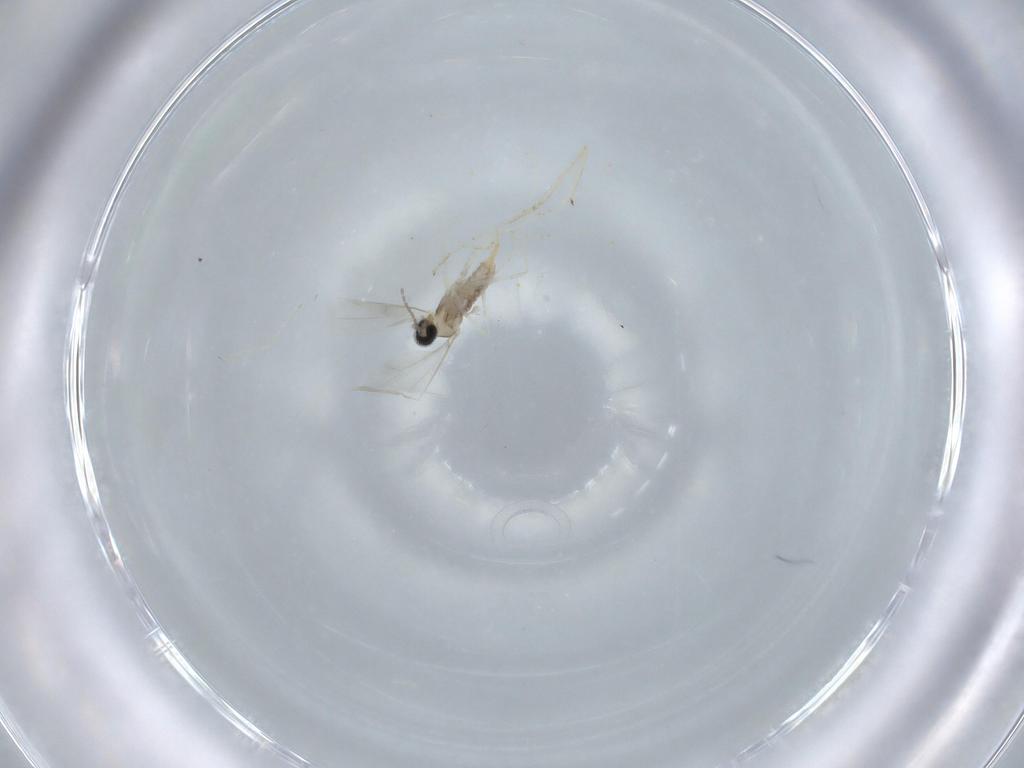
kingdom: Animalia
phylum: Arthropoda
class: Insecta
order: Diptera
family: Cecidomyiidae
